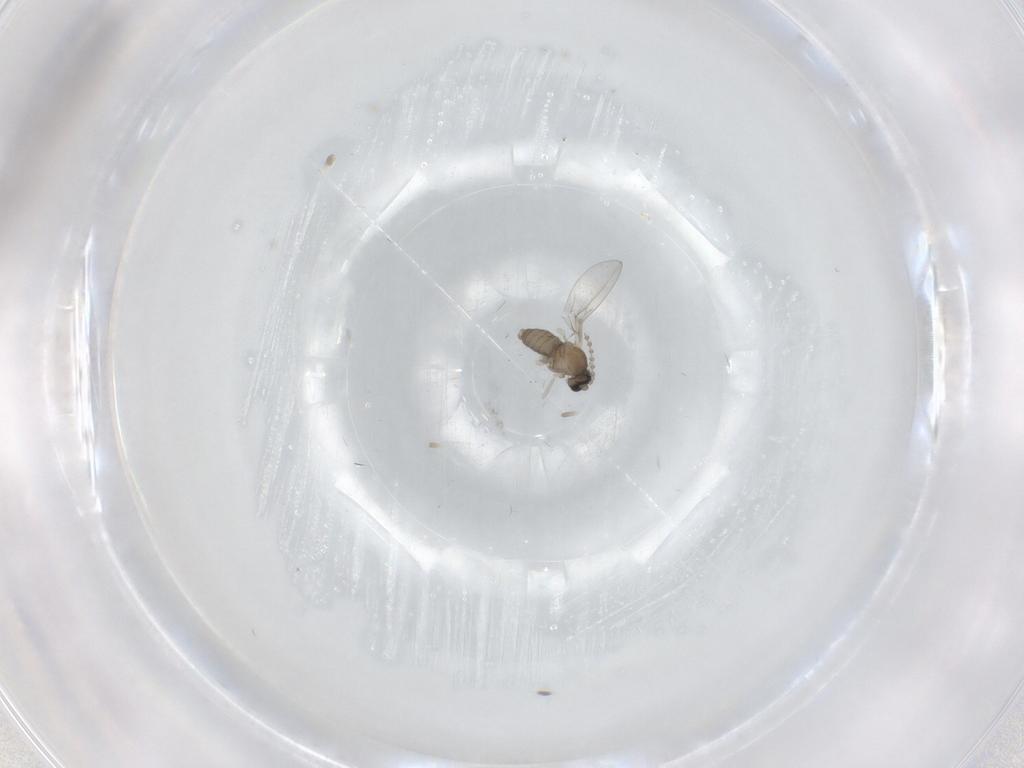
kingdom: Animalia
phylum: Arthropoda
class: Insecta
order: Diptera
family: Cecidomyiidae
